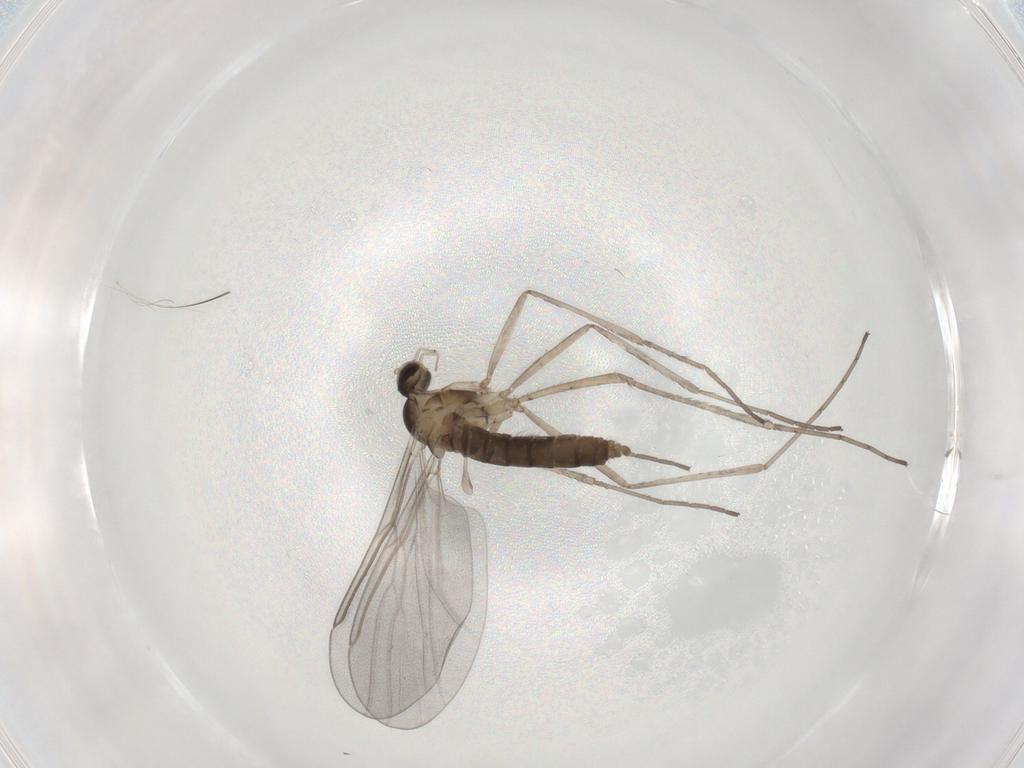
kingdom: Animalia
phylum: Arthropoda
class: Insecta
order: Diptera
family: Cecidomyiidae
